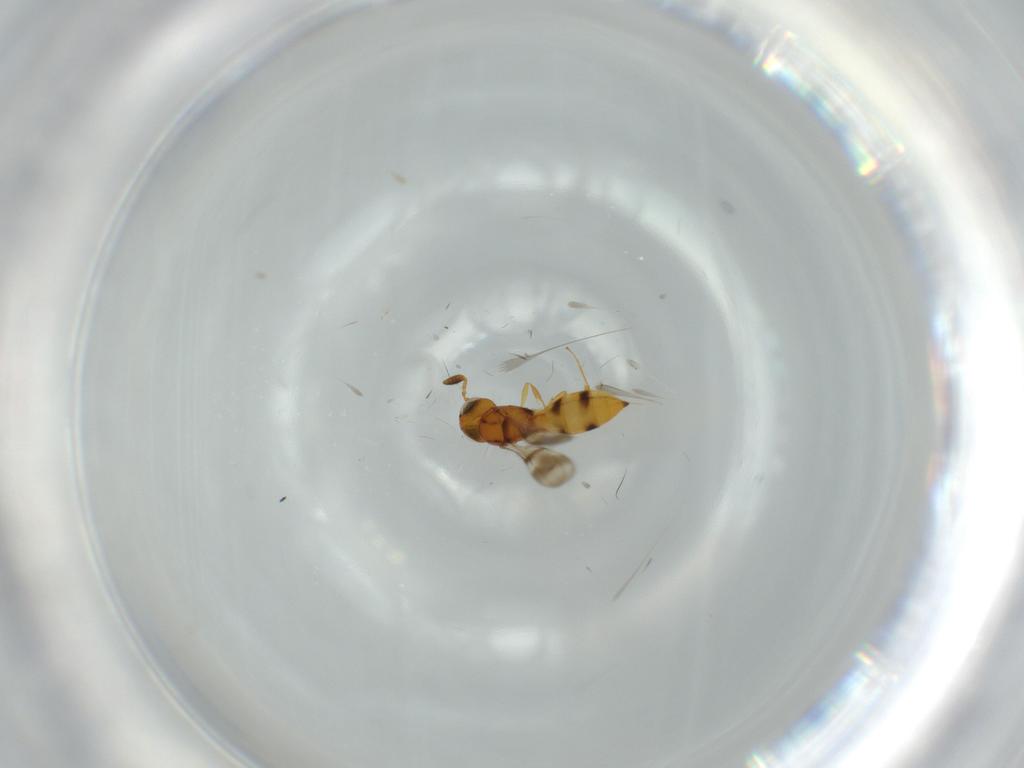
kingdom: Animalia
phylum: Arthropoda
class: Insecta
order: Hymenoptera
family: Scelionidae
